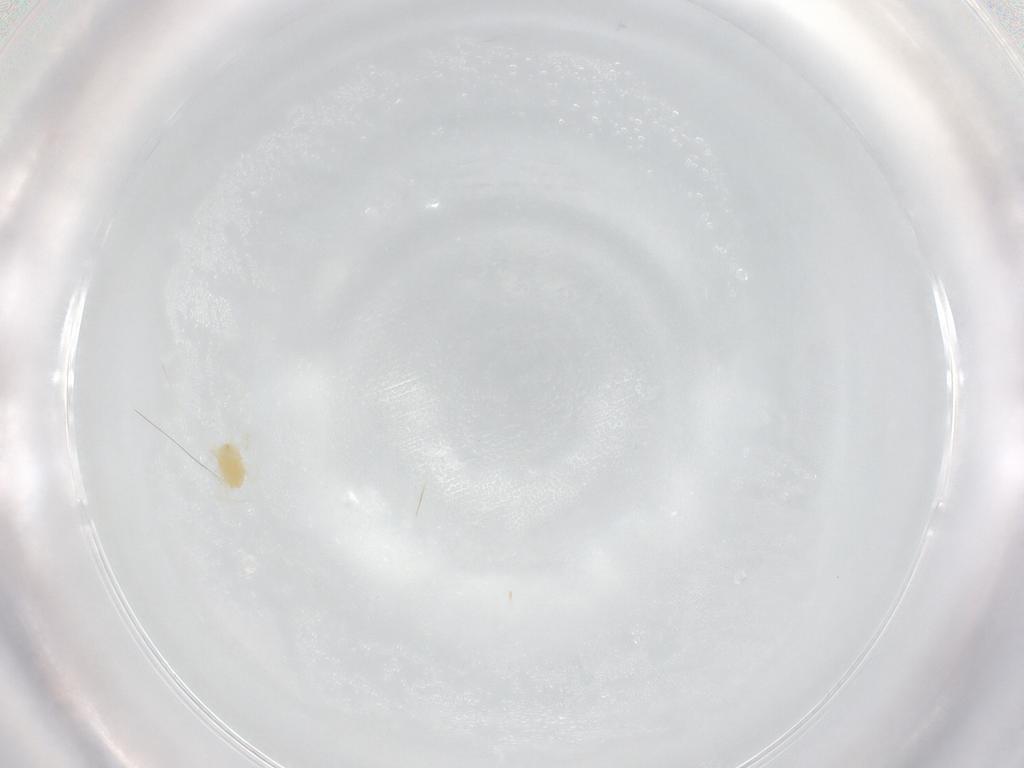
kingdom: Animalia
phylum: Arthropoda
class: Arachnida
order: Trombidiformes
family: Tetranychidae
